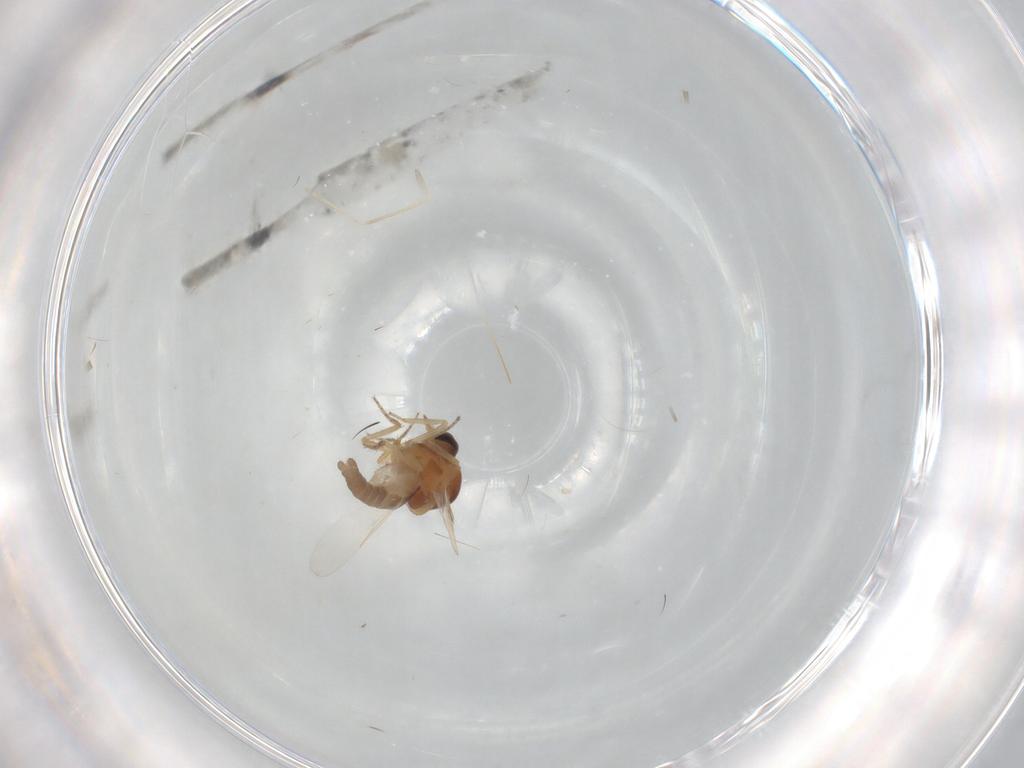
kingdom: Animalia
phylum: Arthropoda
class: Insecta
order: Diptera
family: Ceratopogonidae
